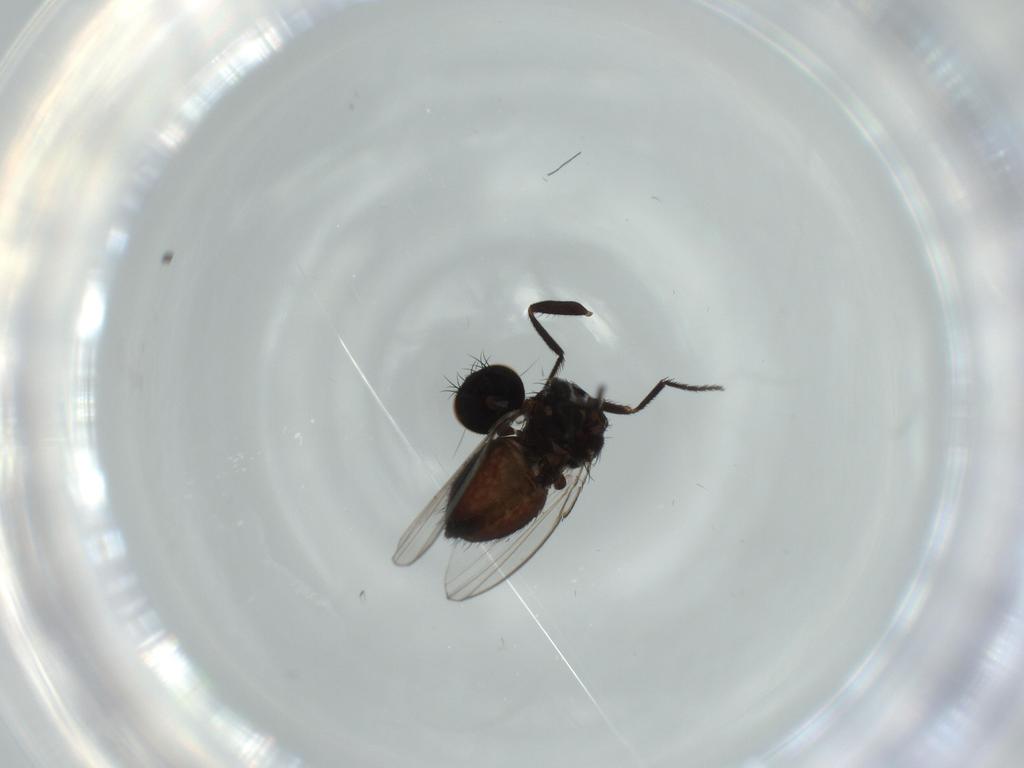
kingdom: Animalia
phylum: Arthropoda
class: Insecta
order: Diptera
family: Milichiidae
